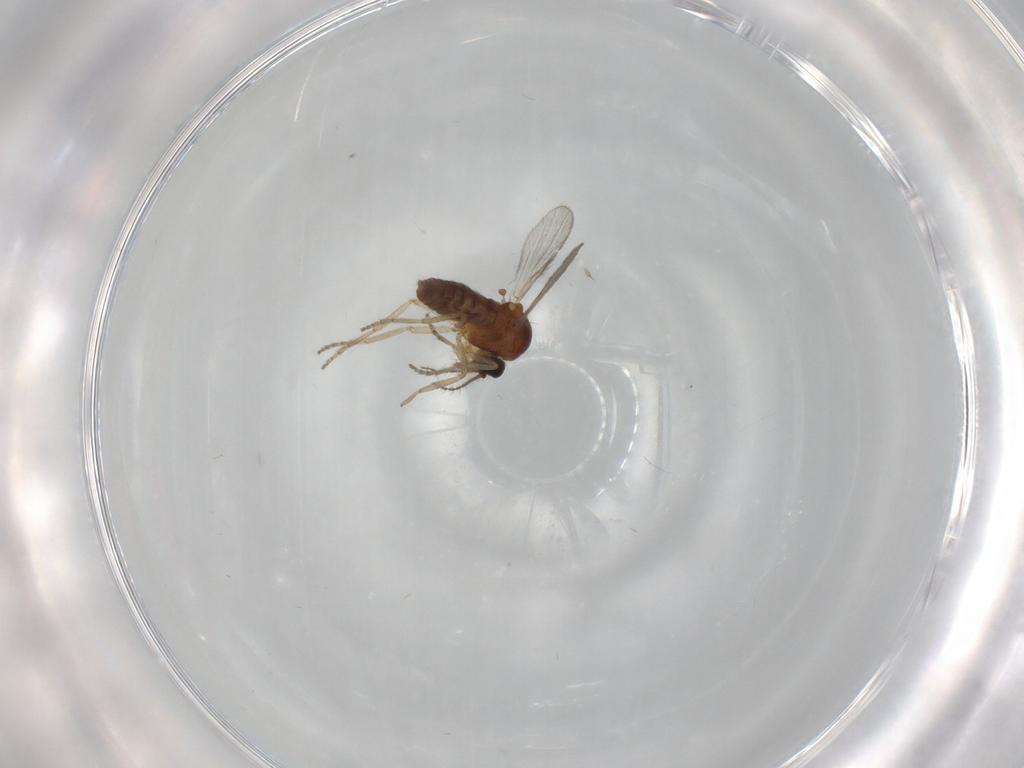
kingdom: Animalia
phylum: Arthropoda
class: Insecta
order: Diptera
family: Ceratopogonidae
